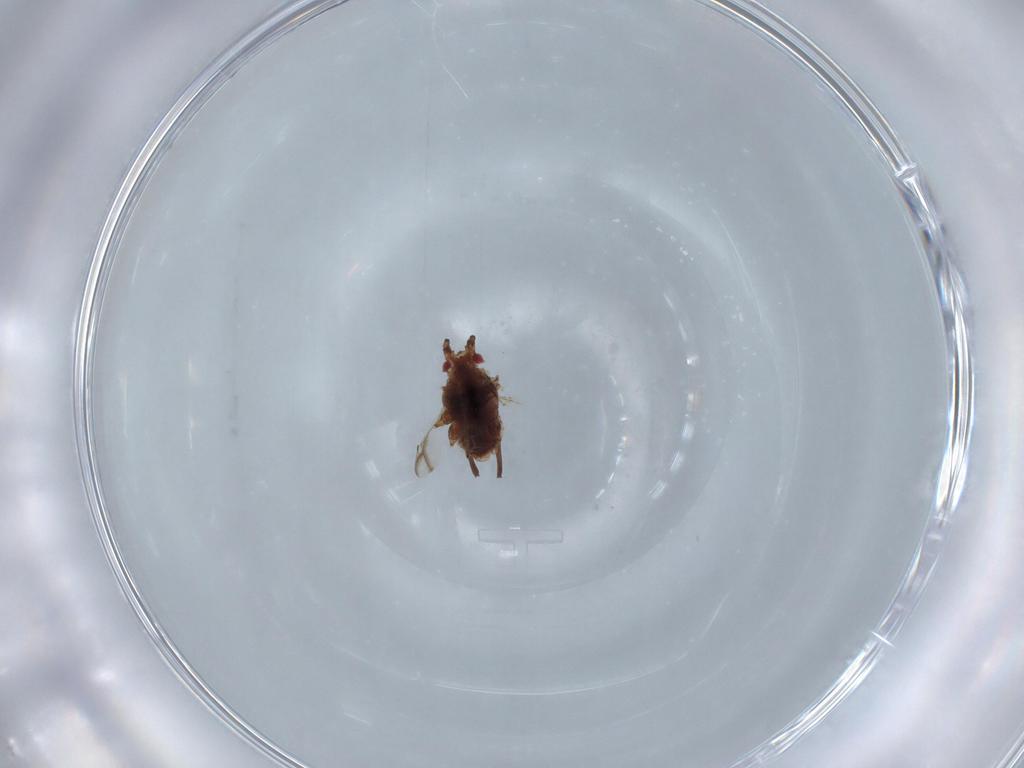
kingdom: Animalia
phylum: Arthropoda
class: Insecta
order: Hemiptera
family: Aphididae
